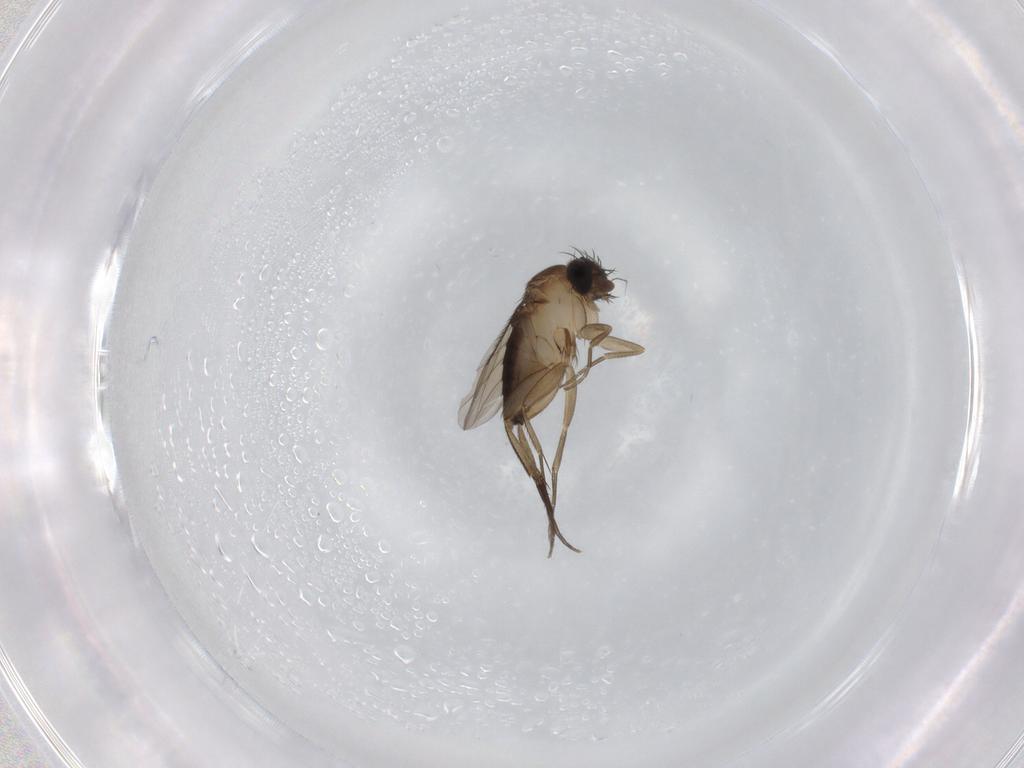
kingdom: Animalia
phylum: Arthropoda
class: Insecta
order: Diptera
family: Phoridae
